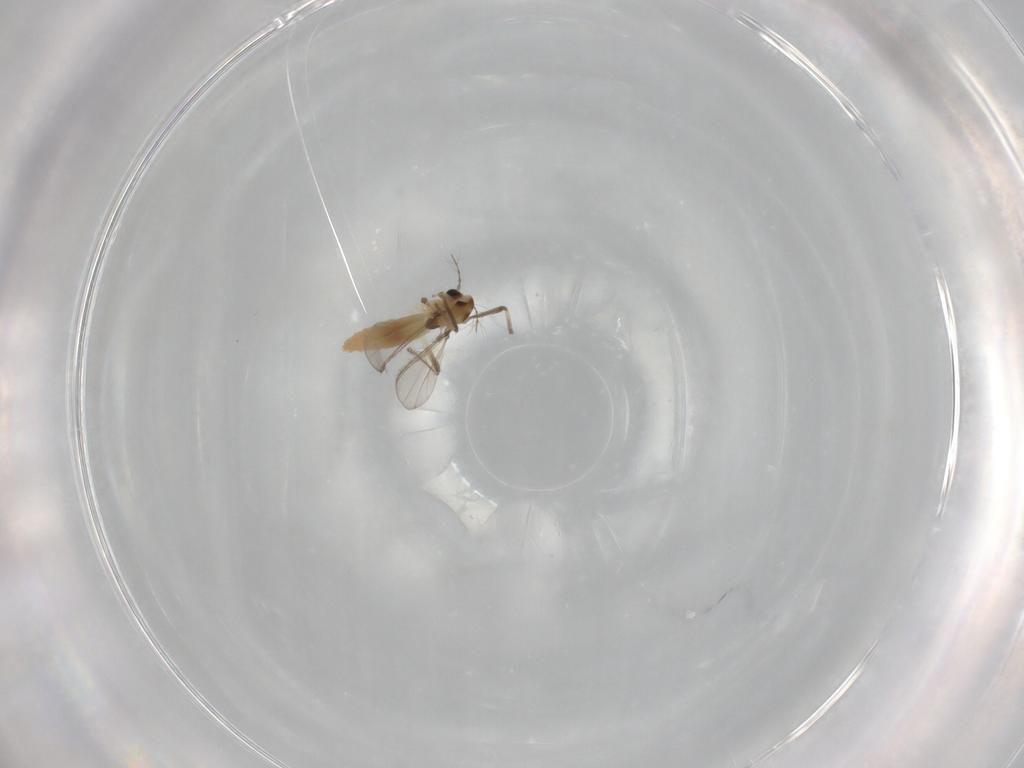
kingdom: Animalia
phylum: Arthropoda
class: Insecta
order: Diptera
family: Chironomidae
